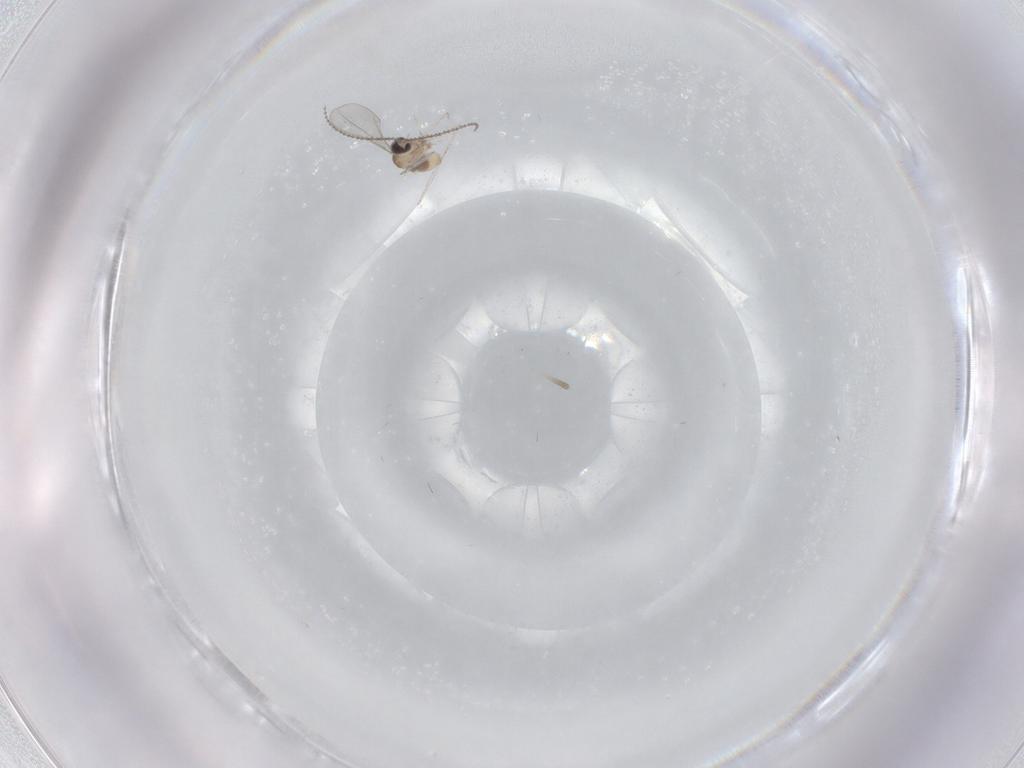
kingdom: Animalia
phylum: Arthropoda
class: Insecta
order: Diptera
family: Cecidomyiidae
